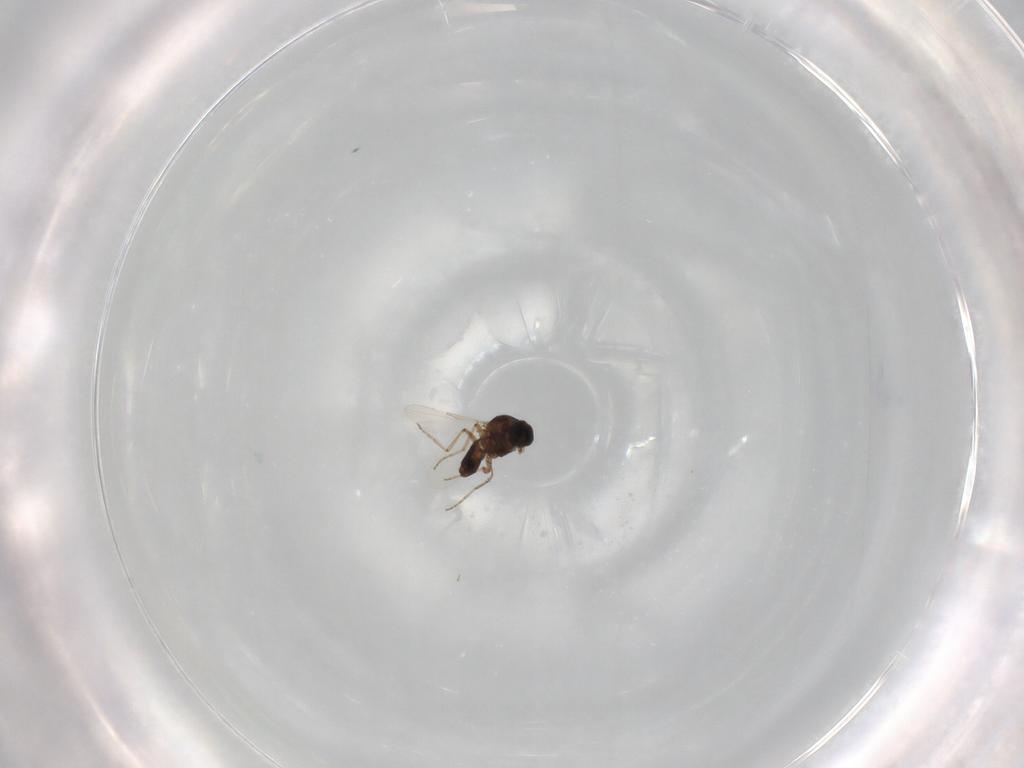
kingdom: Animalia
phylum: Arthropoda
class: Insecta
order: Diptera
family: Ceratopogonidae
